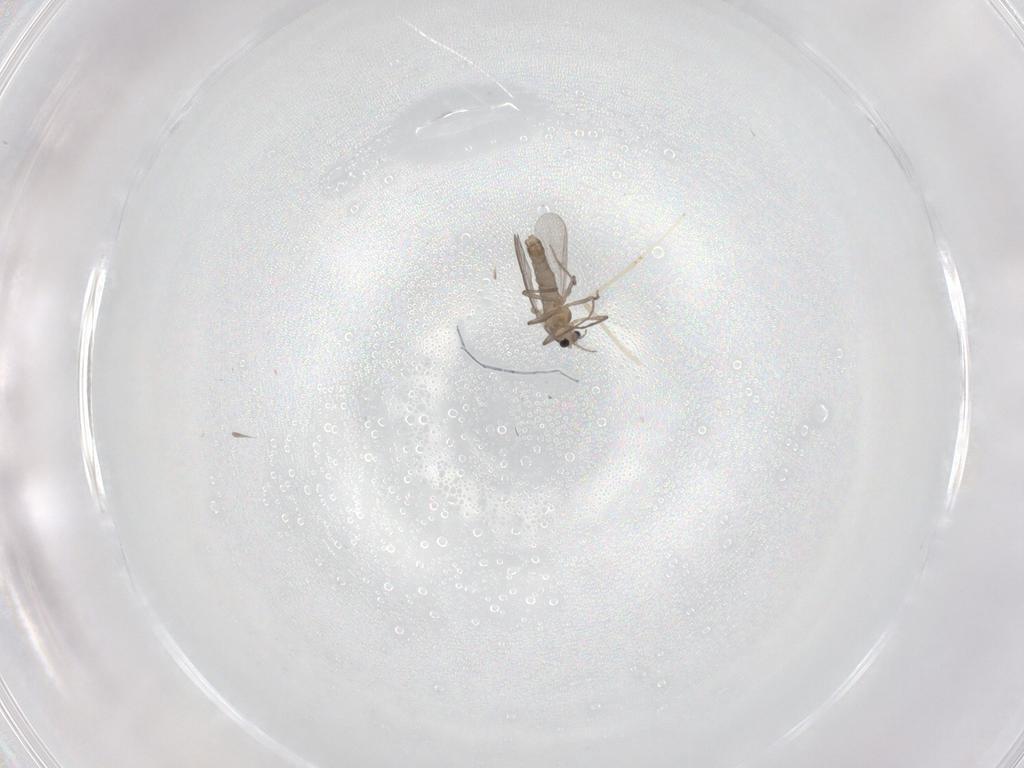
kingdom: Animalia
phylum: Arthropoda
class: Insecta
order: Diptera
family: Chironomidae
